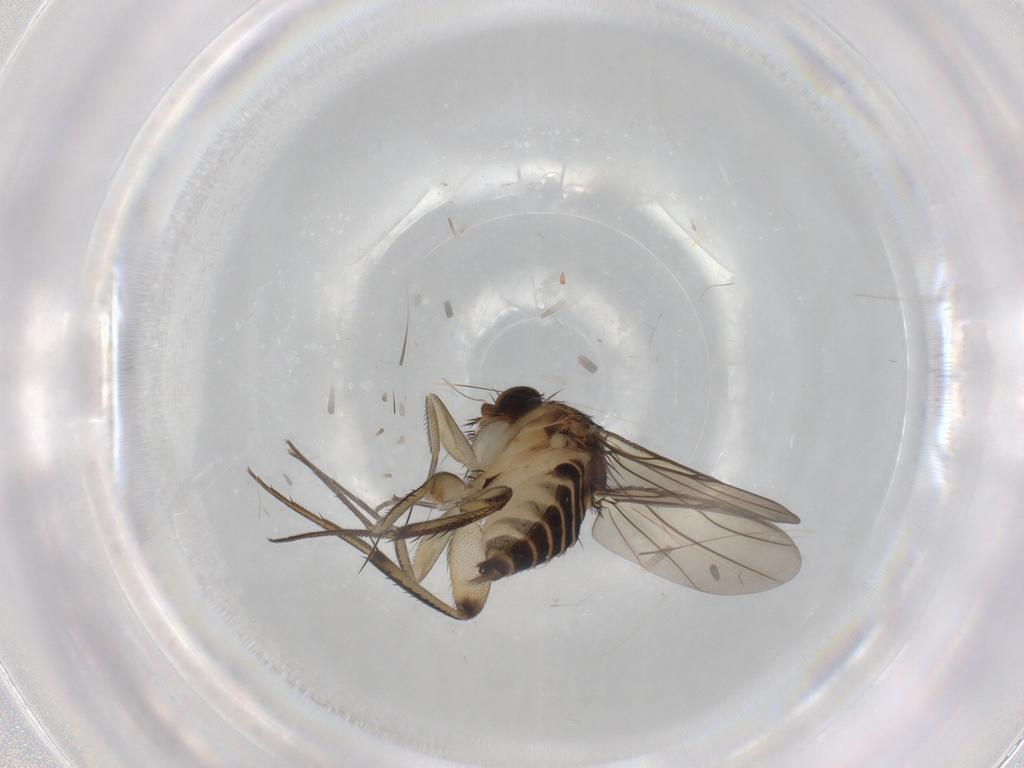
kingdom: Animalia
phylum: Arthropoda
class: Insecta
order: Diptera
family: Phoridae
